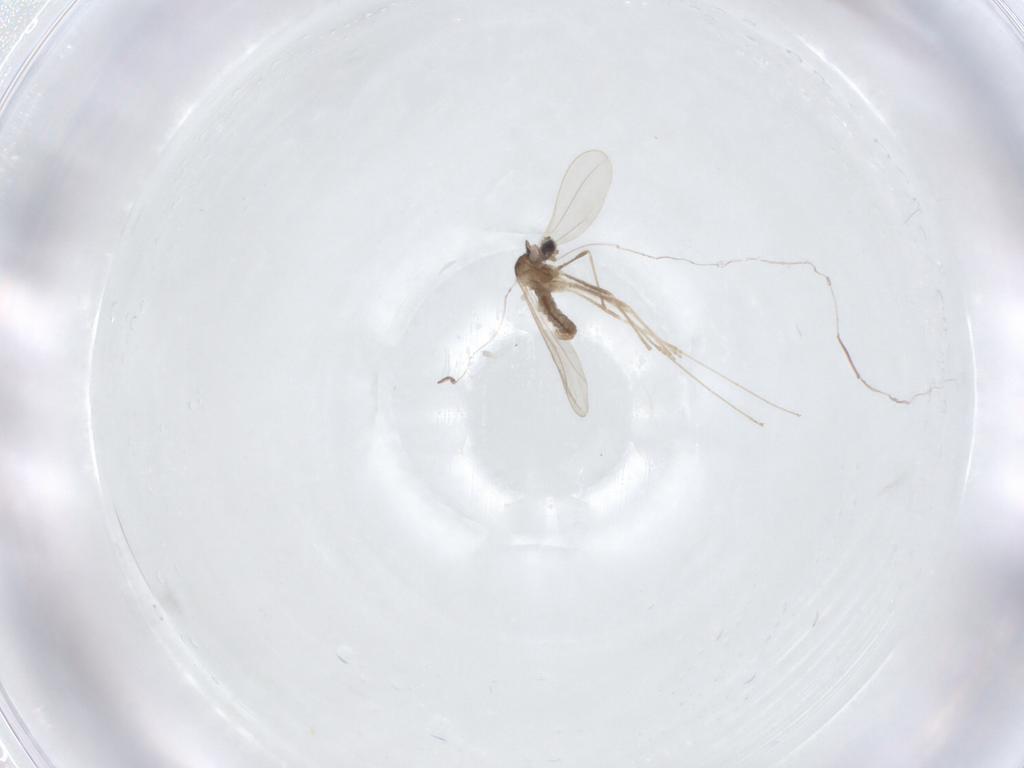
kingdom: Animalia
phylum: Arthropoda
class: Insecta
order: Diptera
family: Cecidomyiidae
